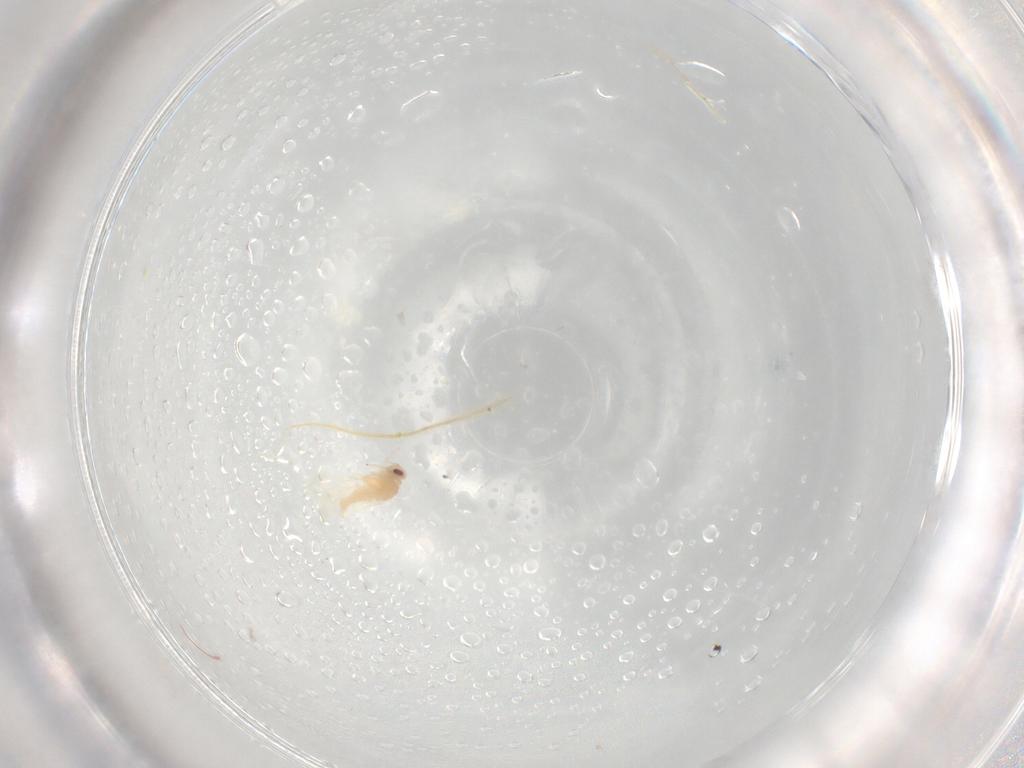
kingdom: Animalia
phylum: Arthropoda
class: Insecta
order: Hemiptera
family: Aleyrodidae
